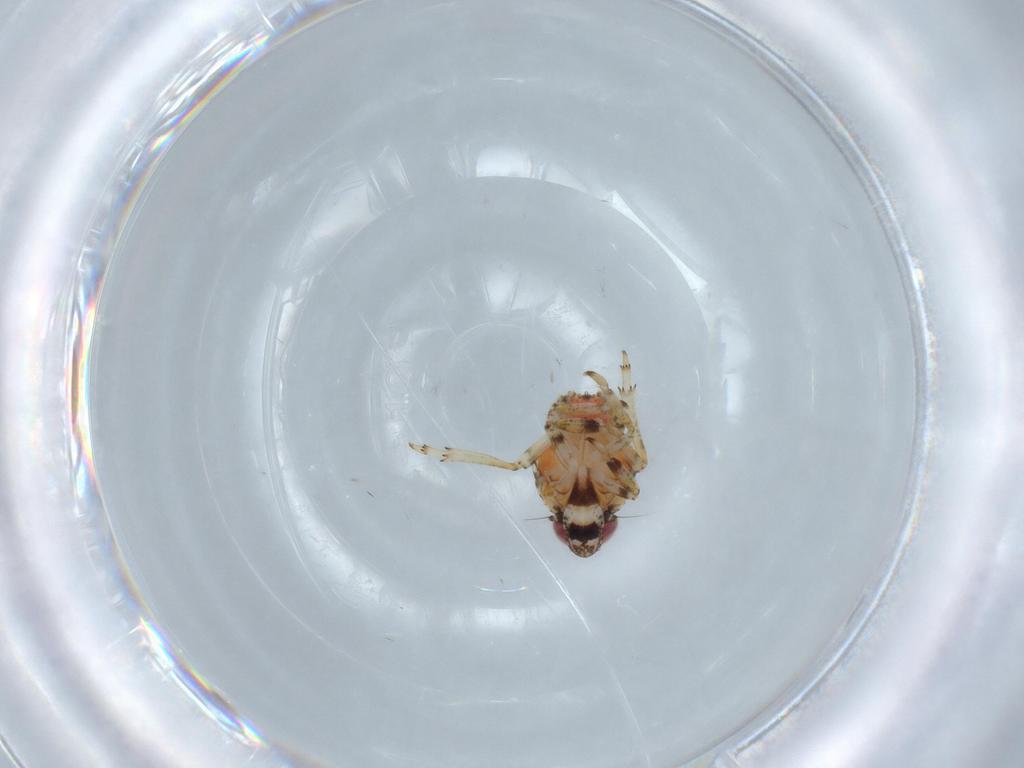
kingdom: Animalia
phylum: Arthropoda
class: Insecta
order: Hemiptera
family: Issidae
